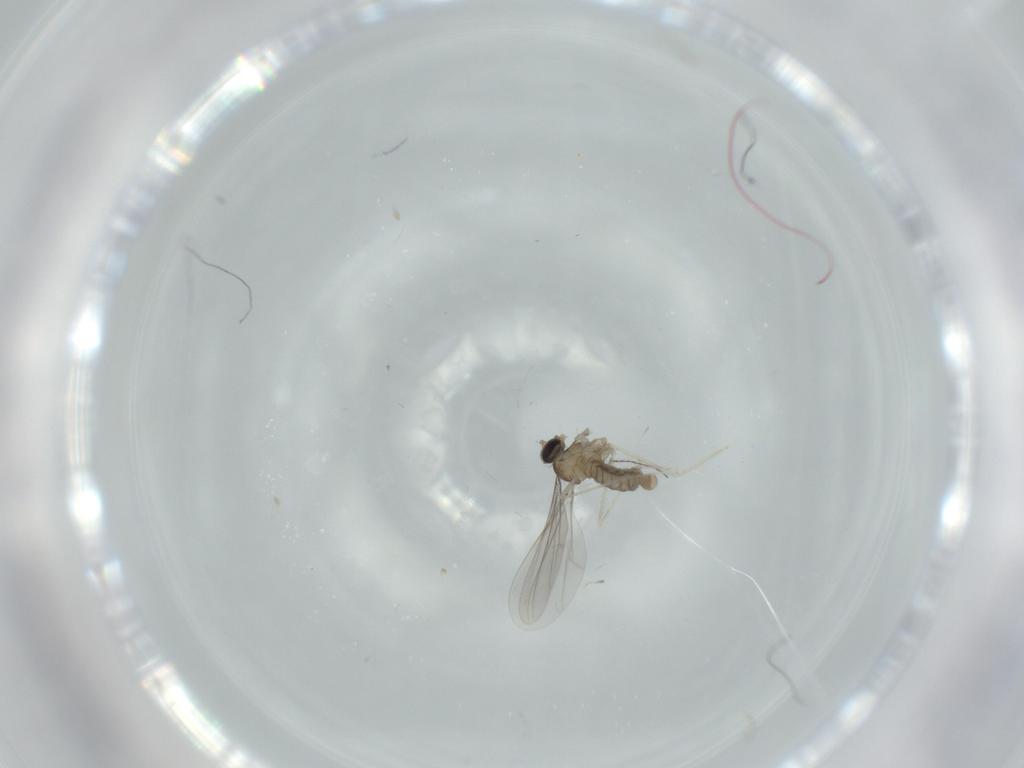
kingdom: Animalia
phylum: Arthropoda
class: Insecta
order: Diptera
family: Cecidomyiidae
